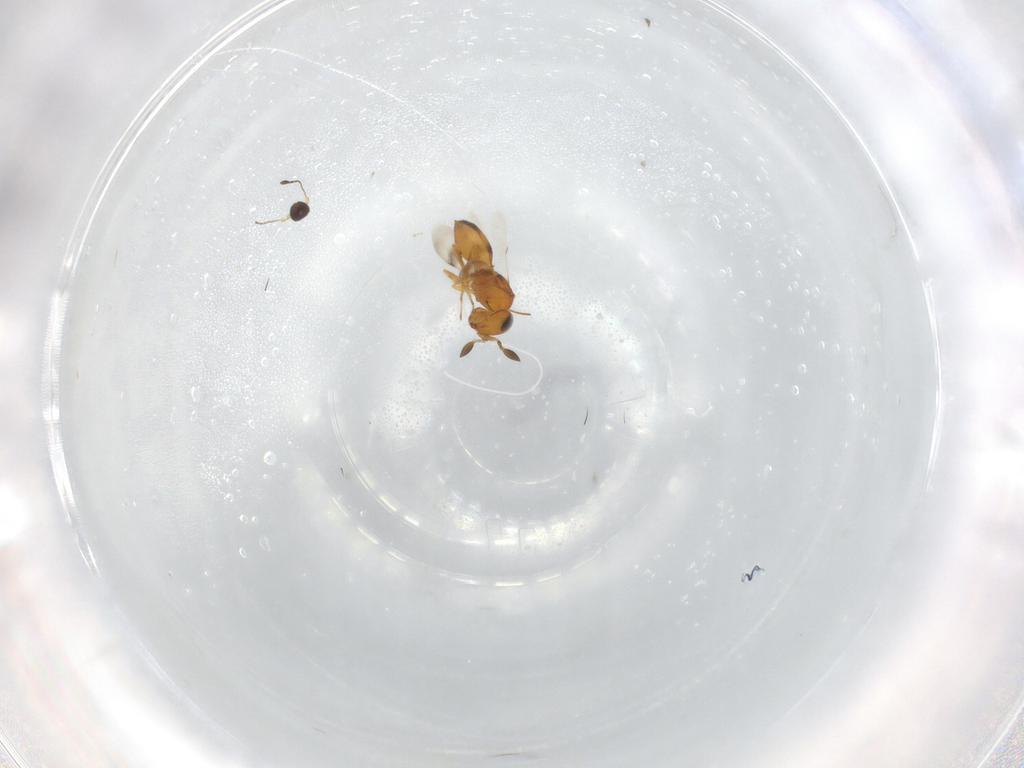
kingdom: Animalia
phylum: Arthropoda
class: Insecta
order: Hymenoptera
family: Scelionidae
